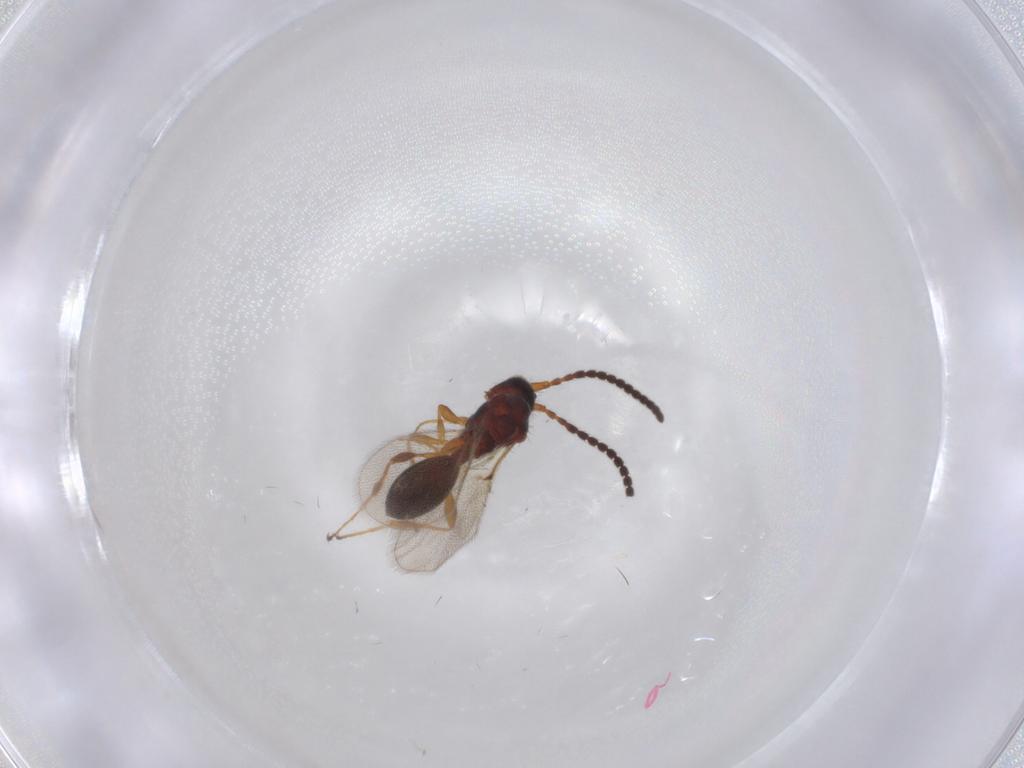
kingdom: Animalia
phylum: Arthropoda
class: Insecta
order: Hymenoptera
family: Diapriidae
